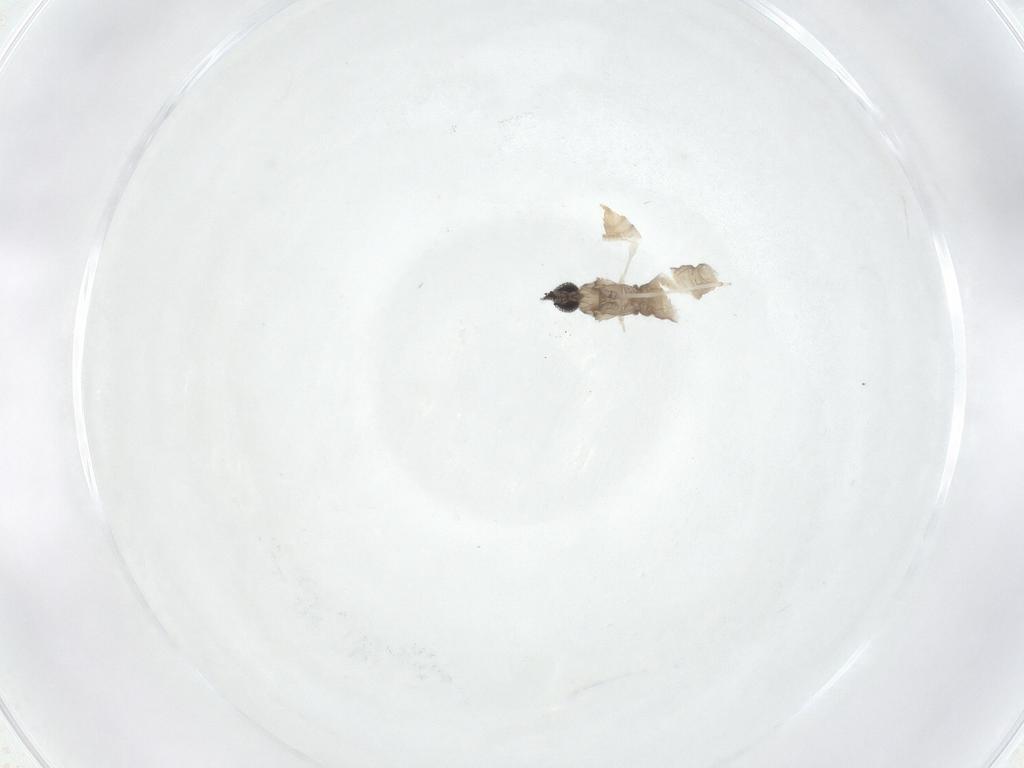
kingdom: Animalia
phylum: Arthropoda
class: Insecta
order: Diptera
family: Cecidomyiidae
